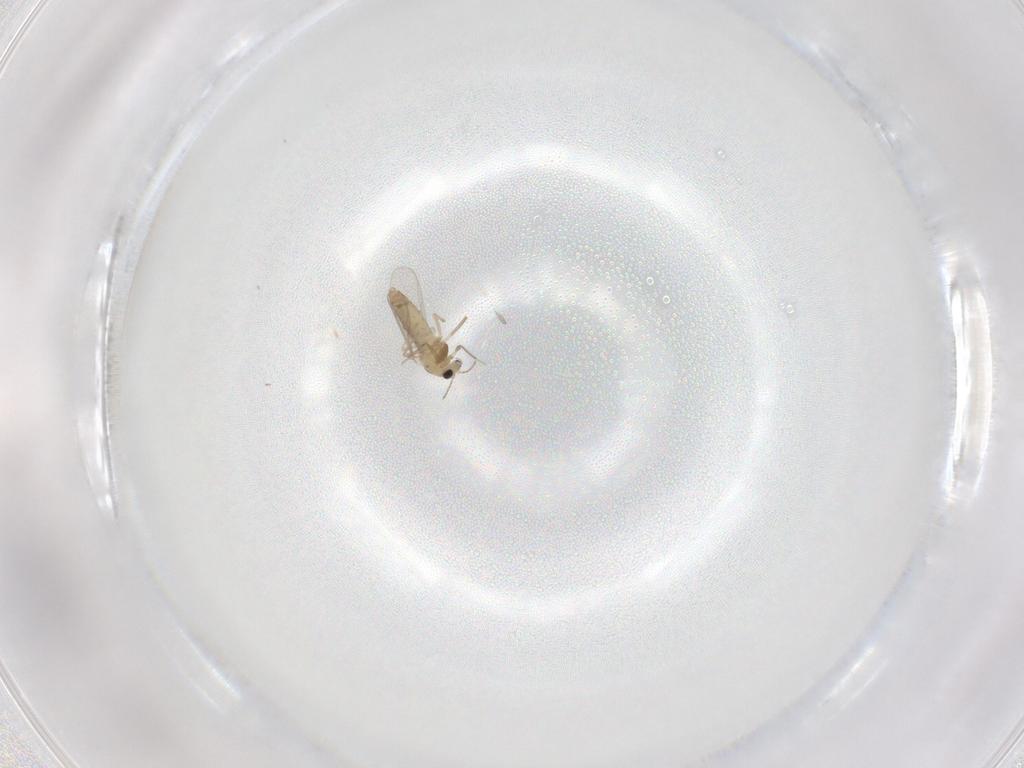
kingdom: Animalia
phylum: Arthropoda
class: Insecta
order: Diptera
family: Chironomidae
